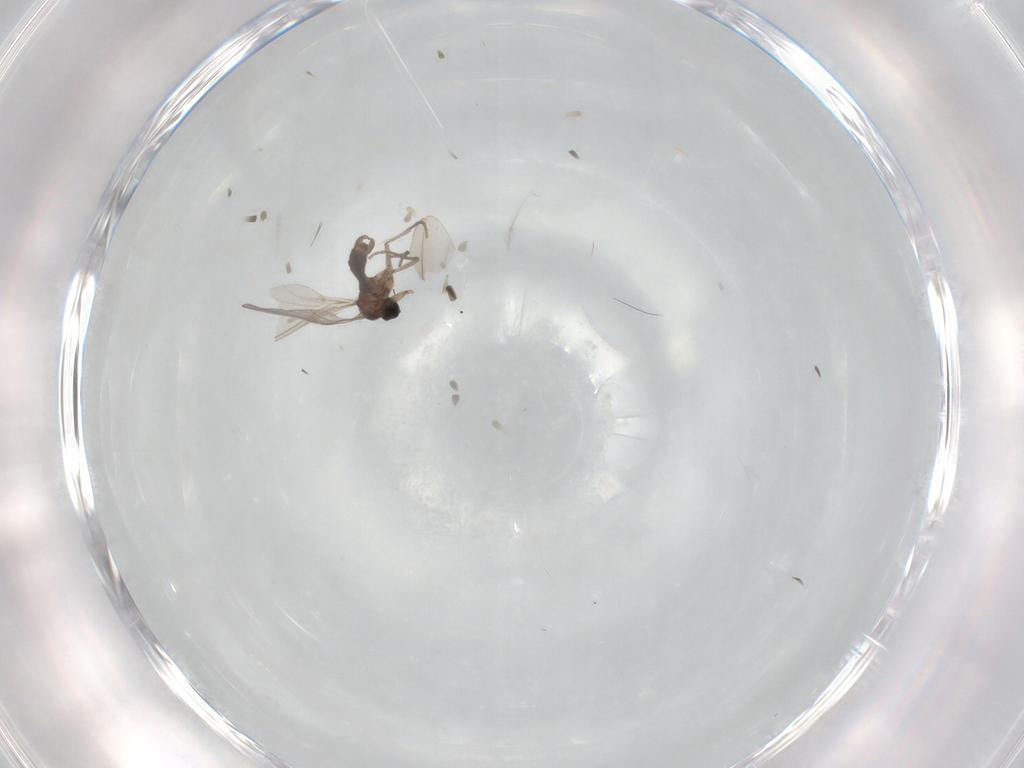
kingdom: Animalia
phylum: Arthropoda
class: Insecta
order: Diptera
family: Sciaridae
